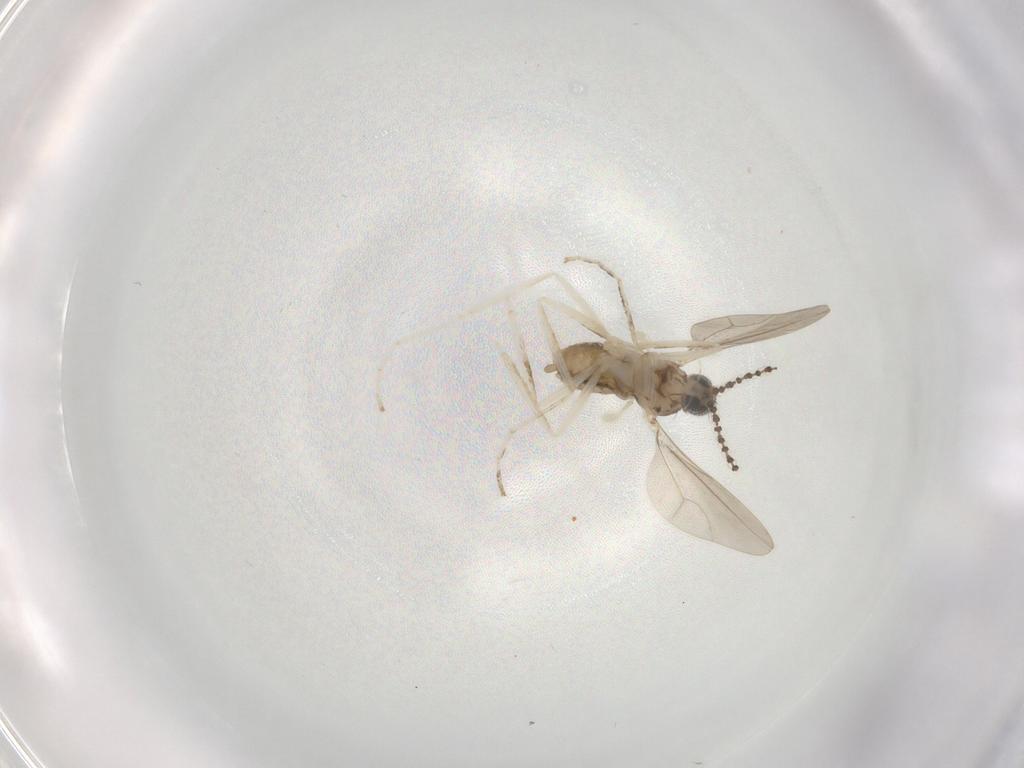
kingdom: Animalia
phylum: Arthropoda
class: Insecta
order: Diptera
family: Cecidomyiidae
